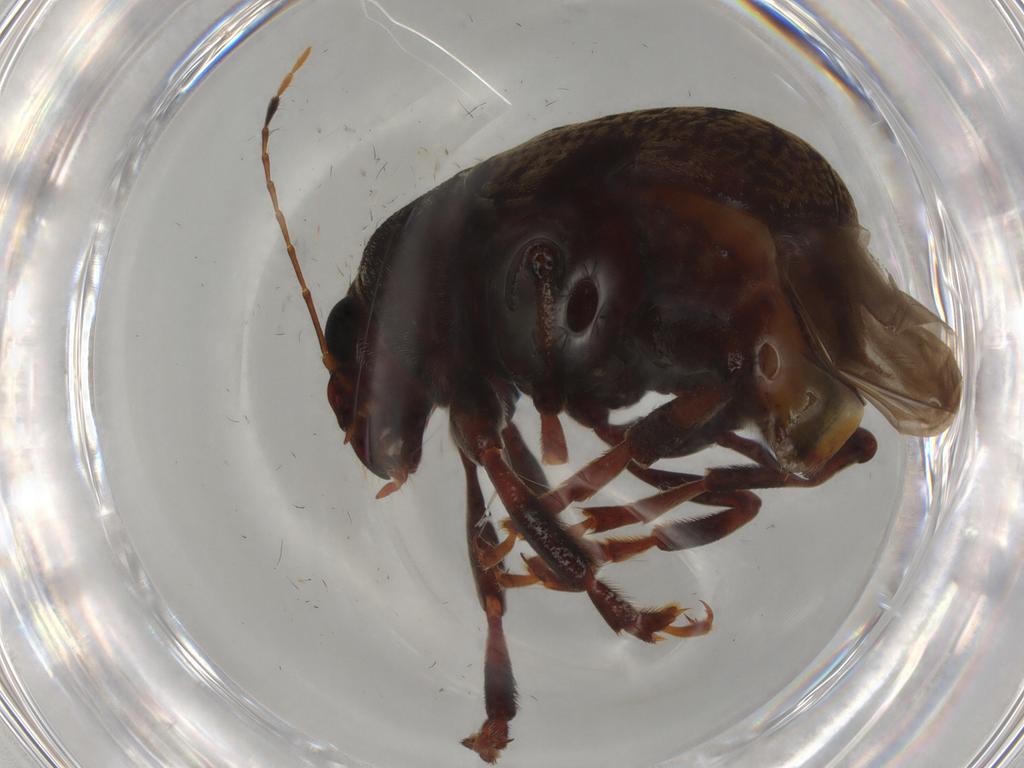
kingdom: Animalia
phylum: Arthropoda
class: Insecta
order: Coleoptera
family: Anthribidae
